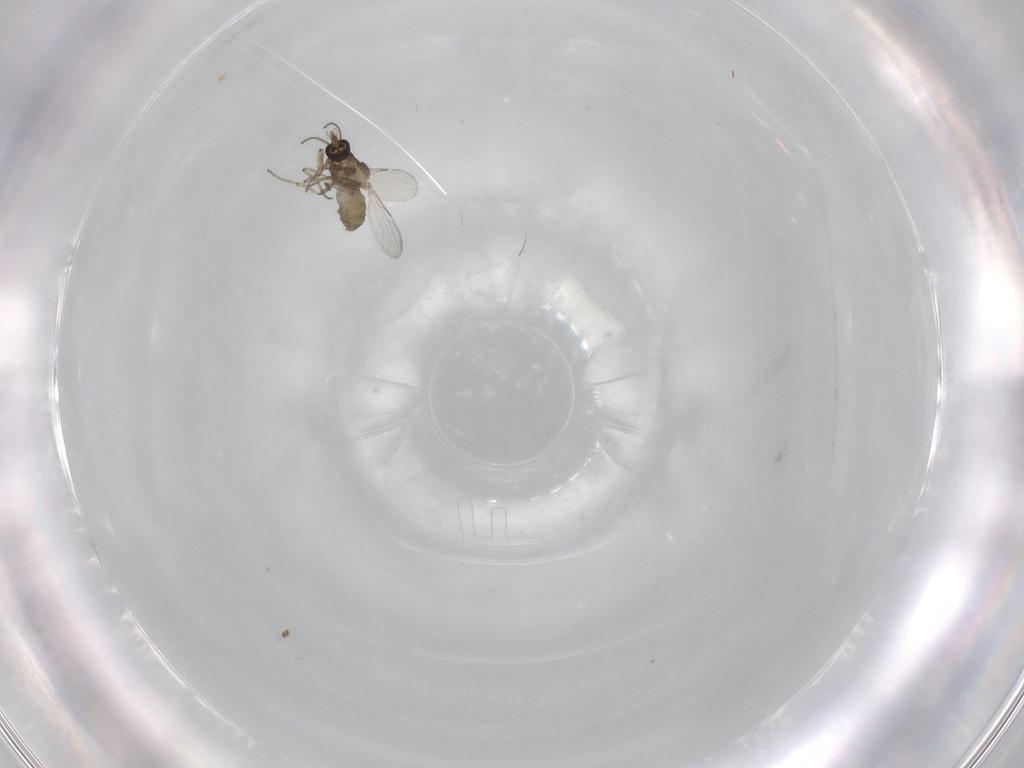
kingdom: Animalia
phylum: Arthropoda
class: Insecta
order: Diptera
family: Ceratopogonidae
